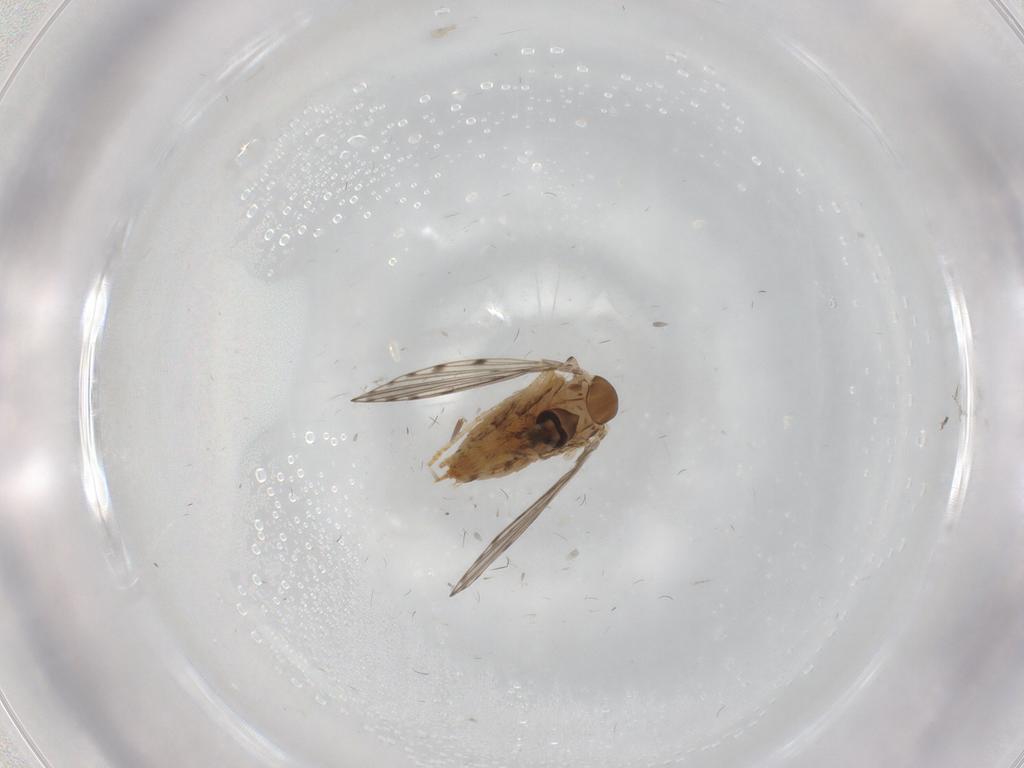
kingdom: Animalia
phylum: Arthropoda
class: Insecta
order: Diptera
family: Psychodidae
